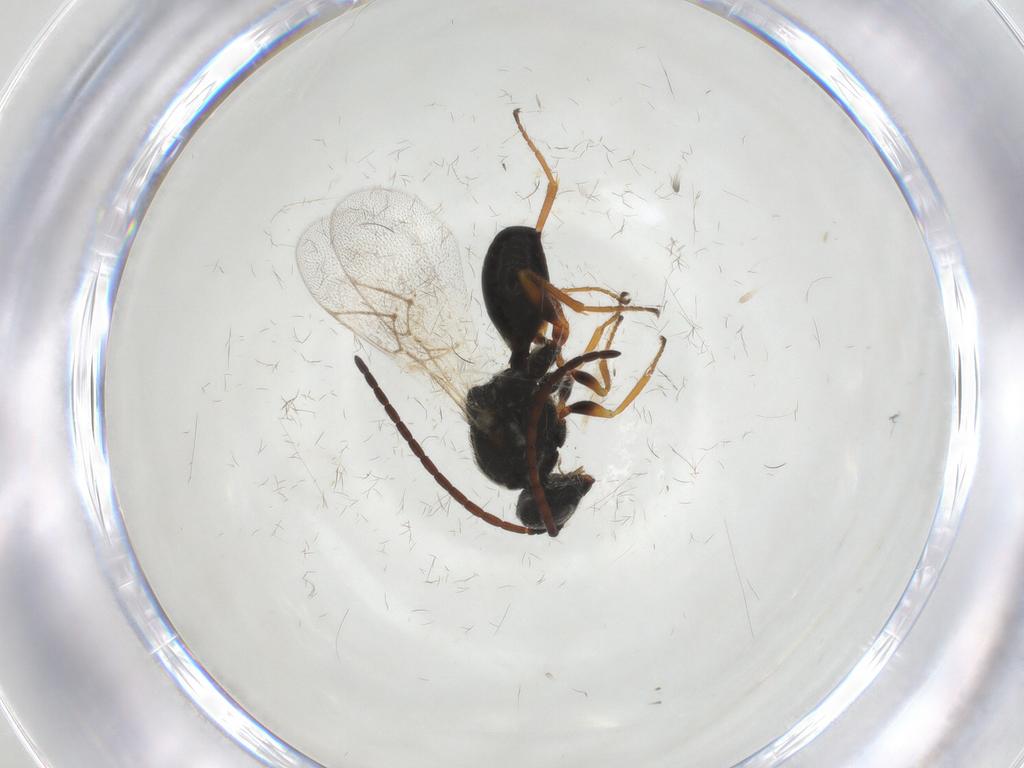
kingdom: Animalia
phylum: Arthropoda
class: Insecta
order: Hymenoptera
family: Figitidae
